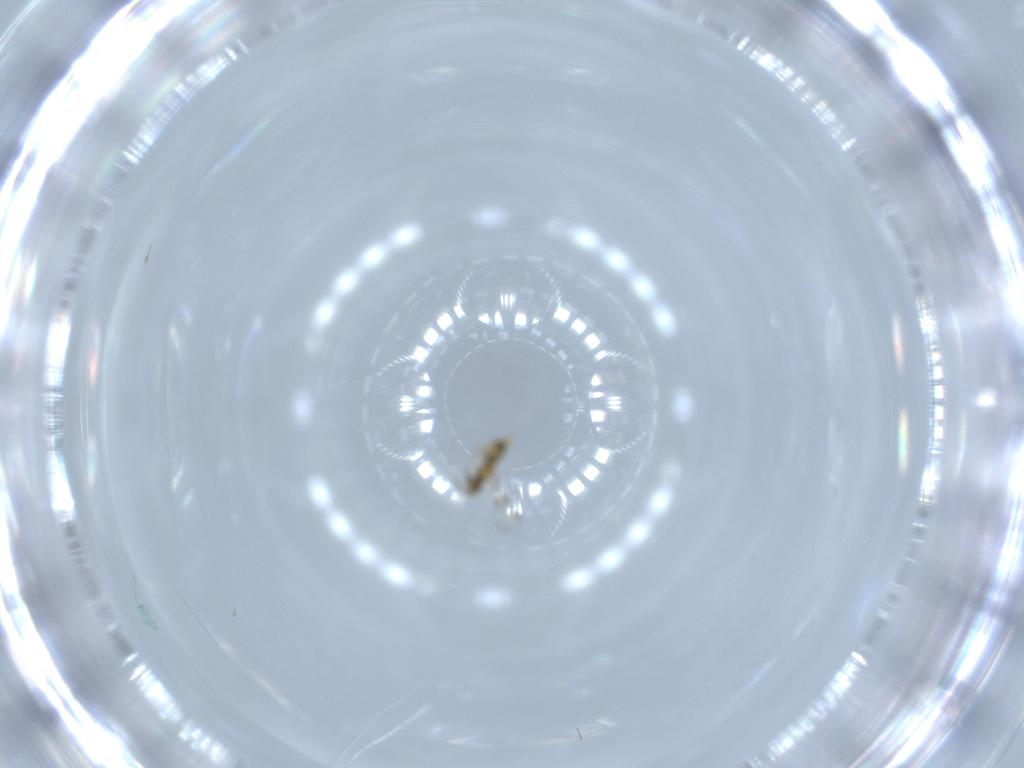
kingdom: Animalia
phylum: Arthropoda
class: Insecta
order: Hymenoptera
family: Aphelinidae
